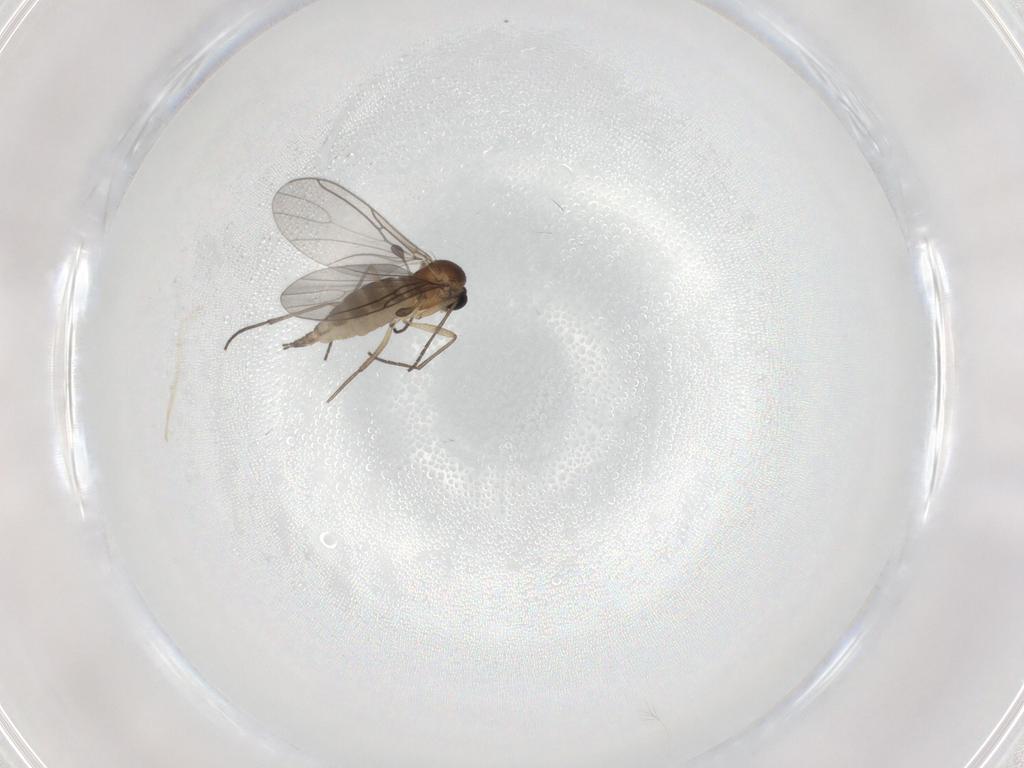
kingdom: Animalia
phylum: Arthropoda
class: Insecta
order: Diptera
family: Sciaridae
